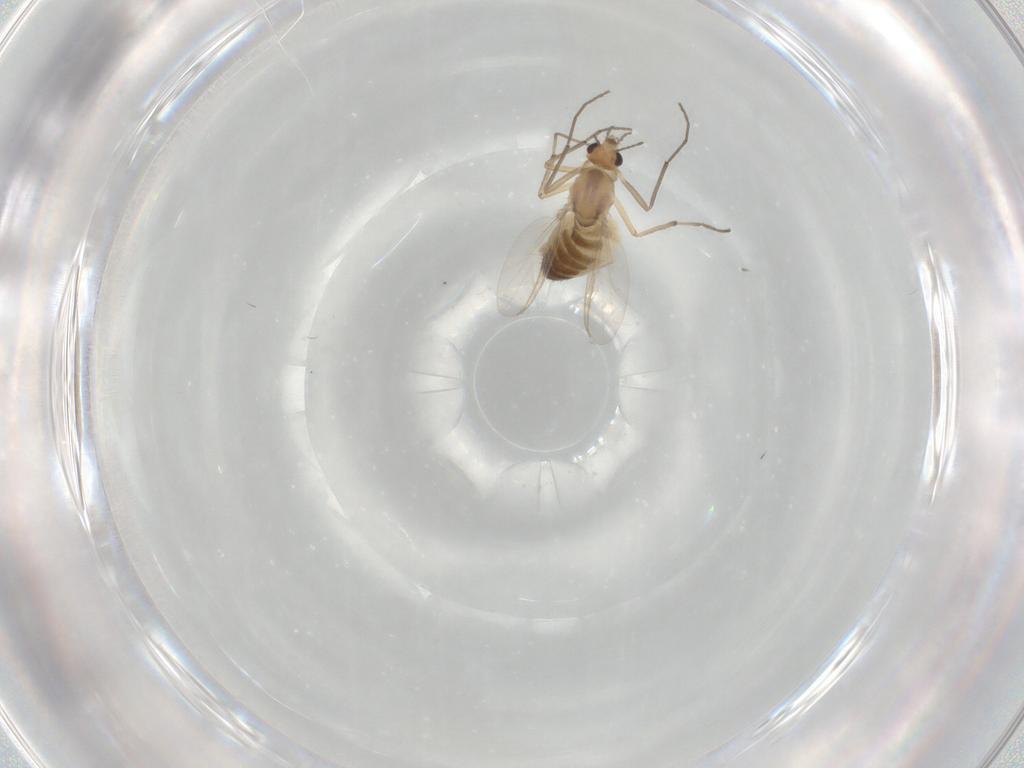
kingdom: Animalia
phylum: Arthropoda
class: Insecta
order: Diptera
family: Chironomidae
